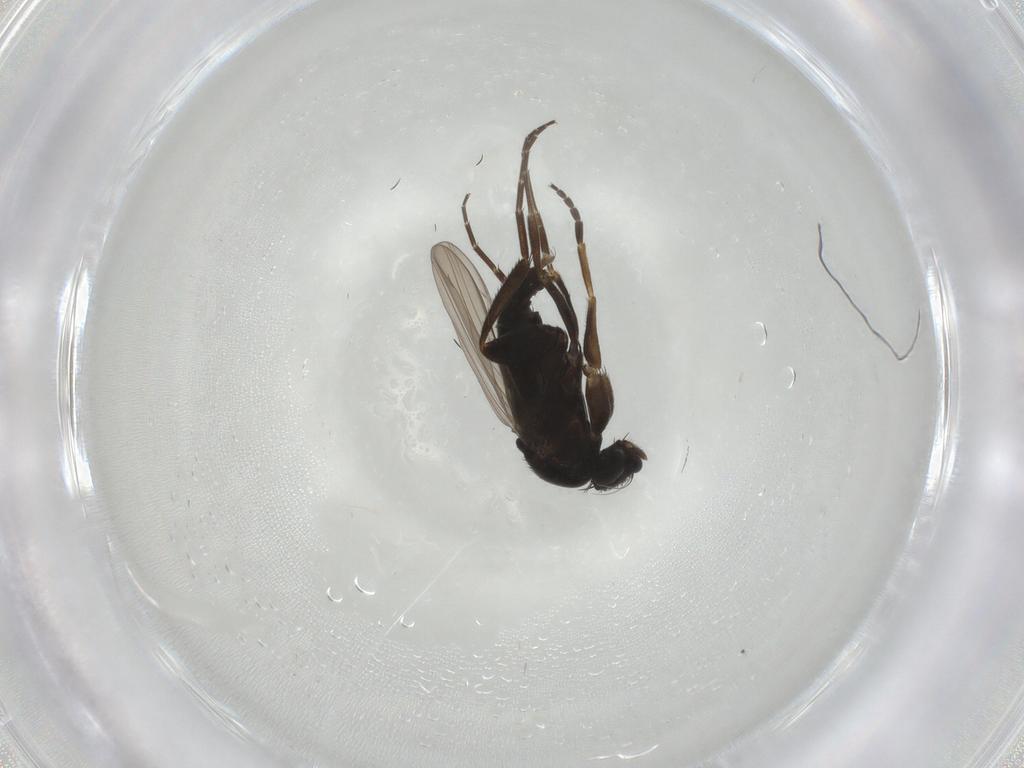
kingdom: Animalia
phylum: Arthropoda
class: Insecta
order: Diptera
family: Phoridae
